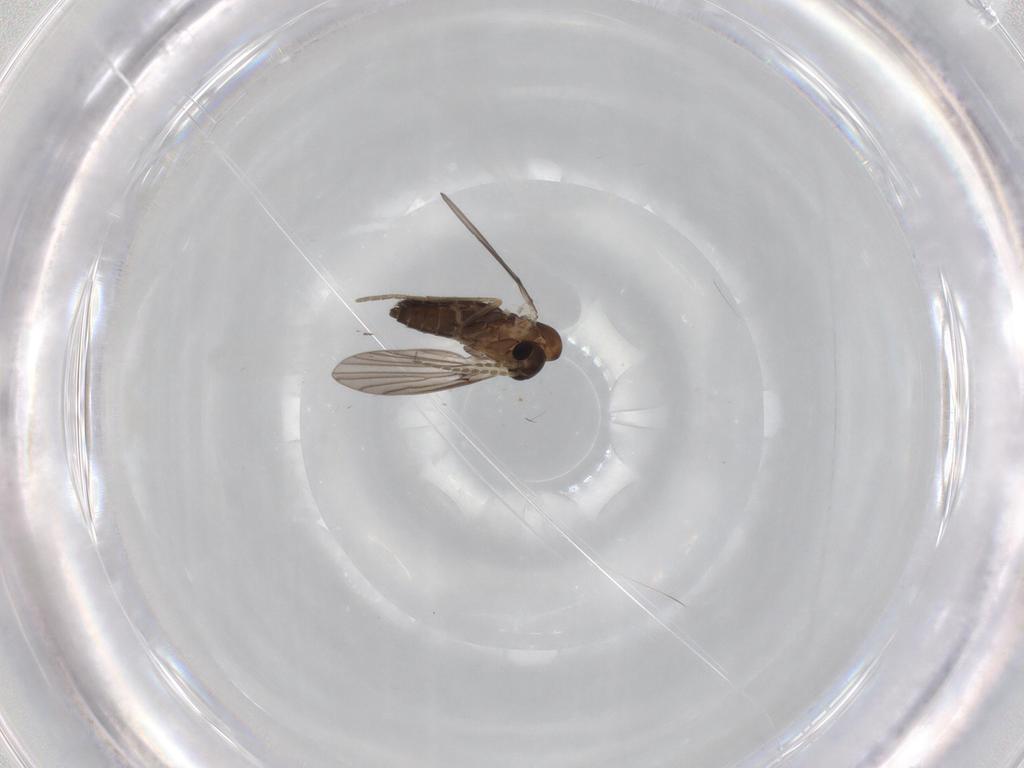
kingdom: Animalia
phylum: Arthropoda
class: Insecta
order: Diptera
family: Psychodidae
